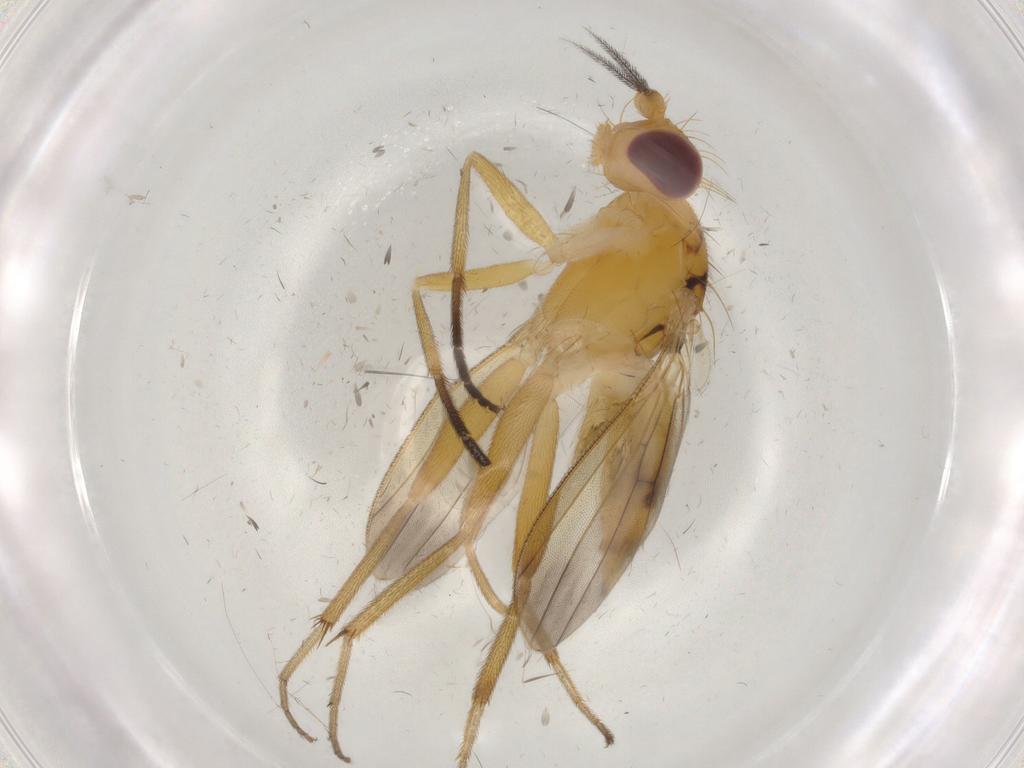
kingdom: Animalia
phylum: Arthropoda
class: Insecta
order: Diptera
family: Clusiidae
